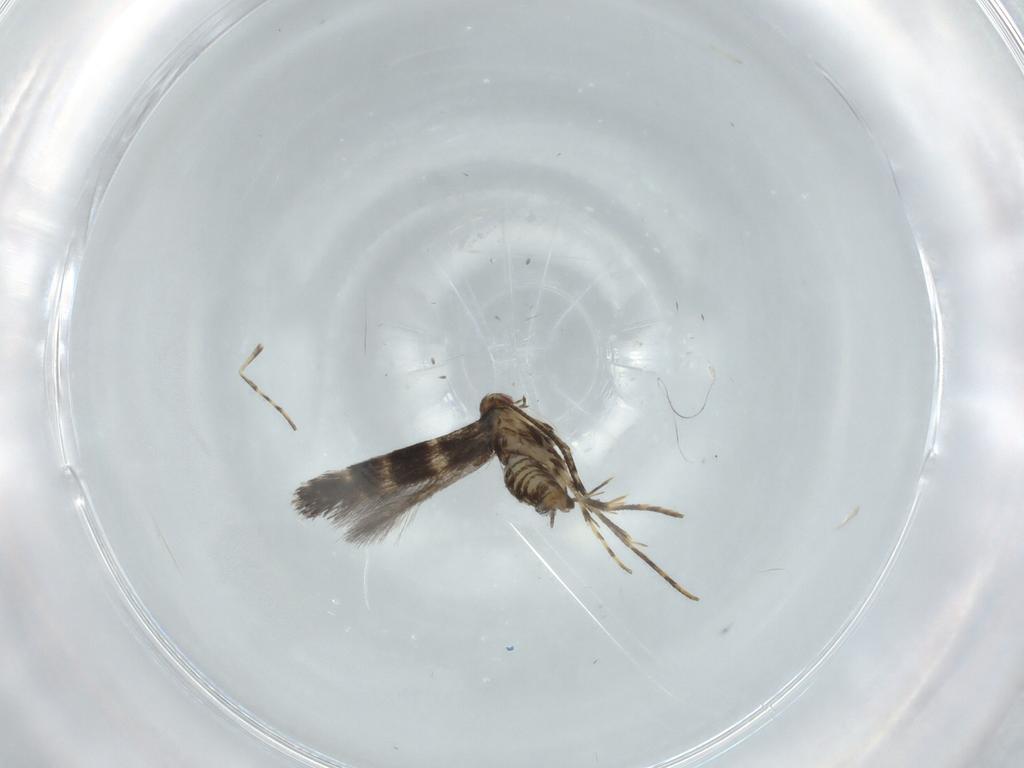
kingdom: Animalia
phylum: Arthropoda
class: Insecta
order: Lepidoptera
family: Gracillariidae
